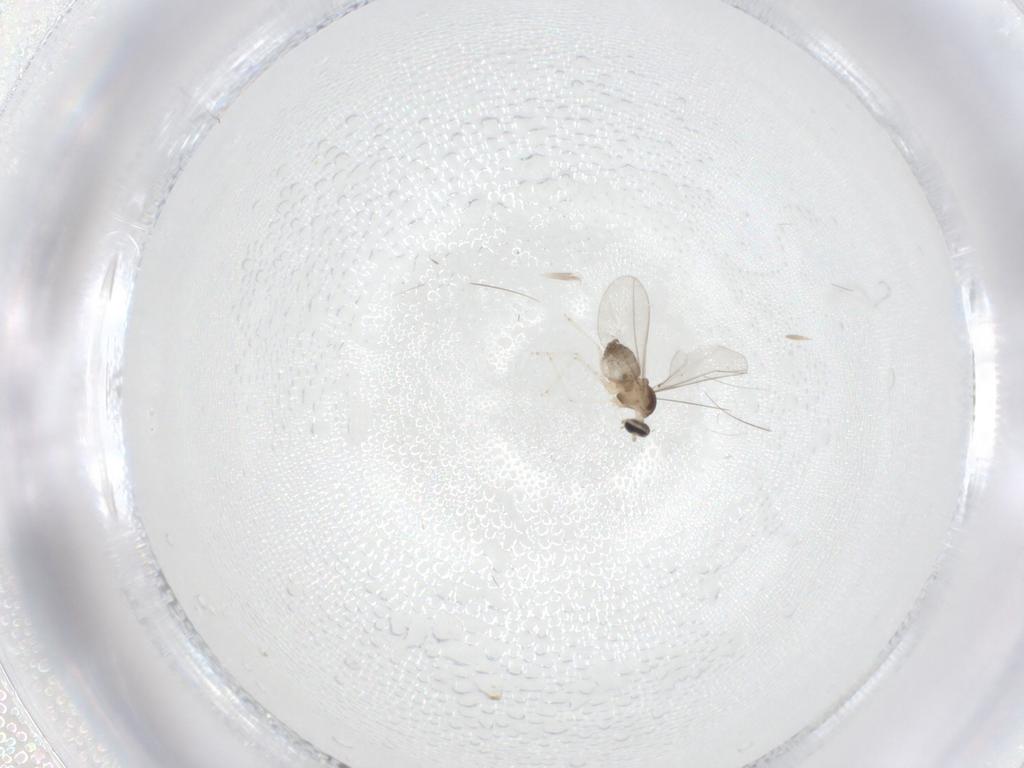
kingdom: Animalia
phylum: Arthropoda
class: Insecta
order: Diptera
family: Cecidomyiidae
